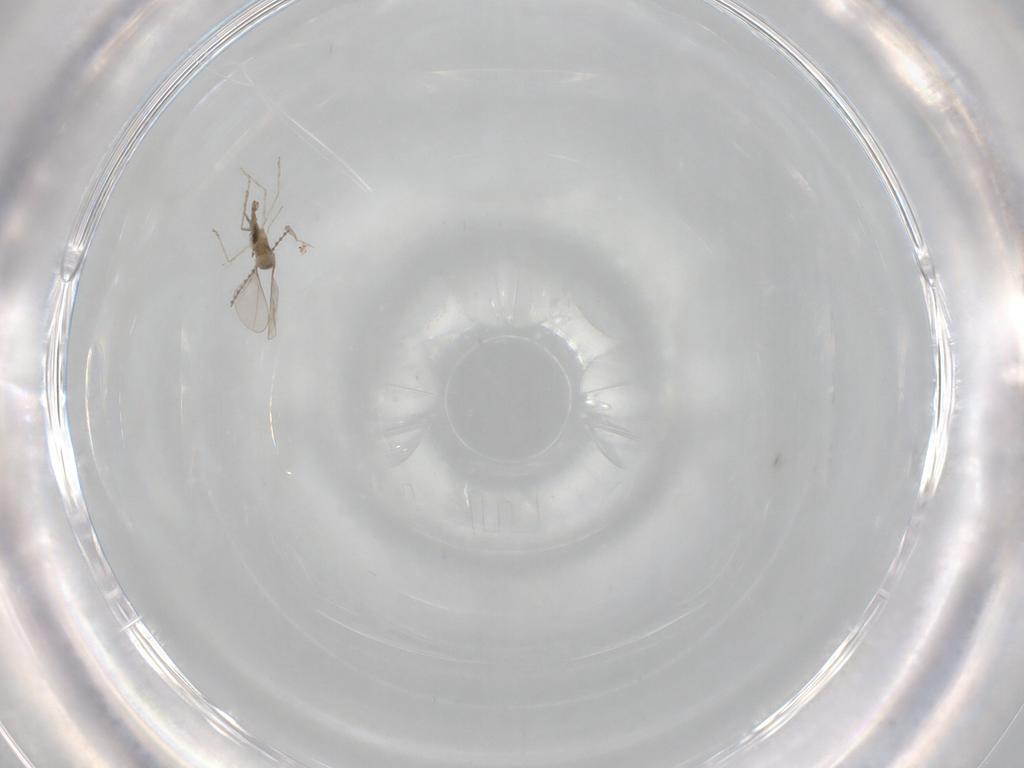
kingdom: Animalia
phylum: Arthropoda
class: Insecta
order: Diptera
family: Cecidomyiidae
